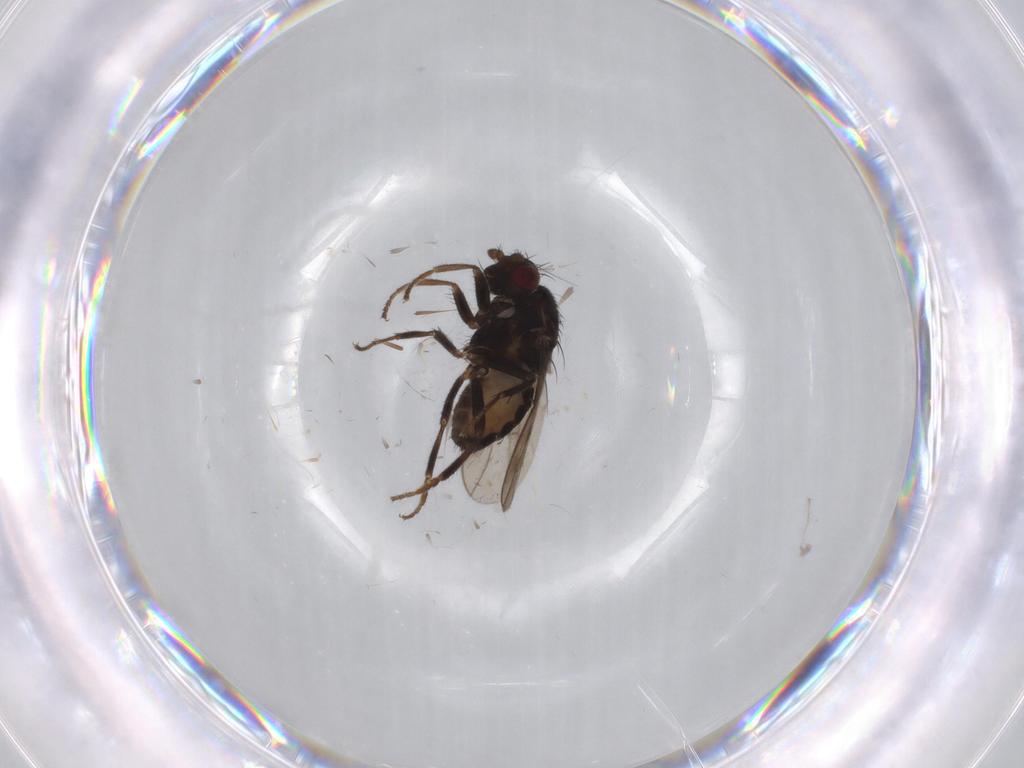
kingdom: Animalia
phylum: Arthropoda
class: Insecta
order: Diptera
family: Sphaeroceridae
